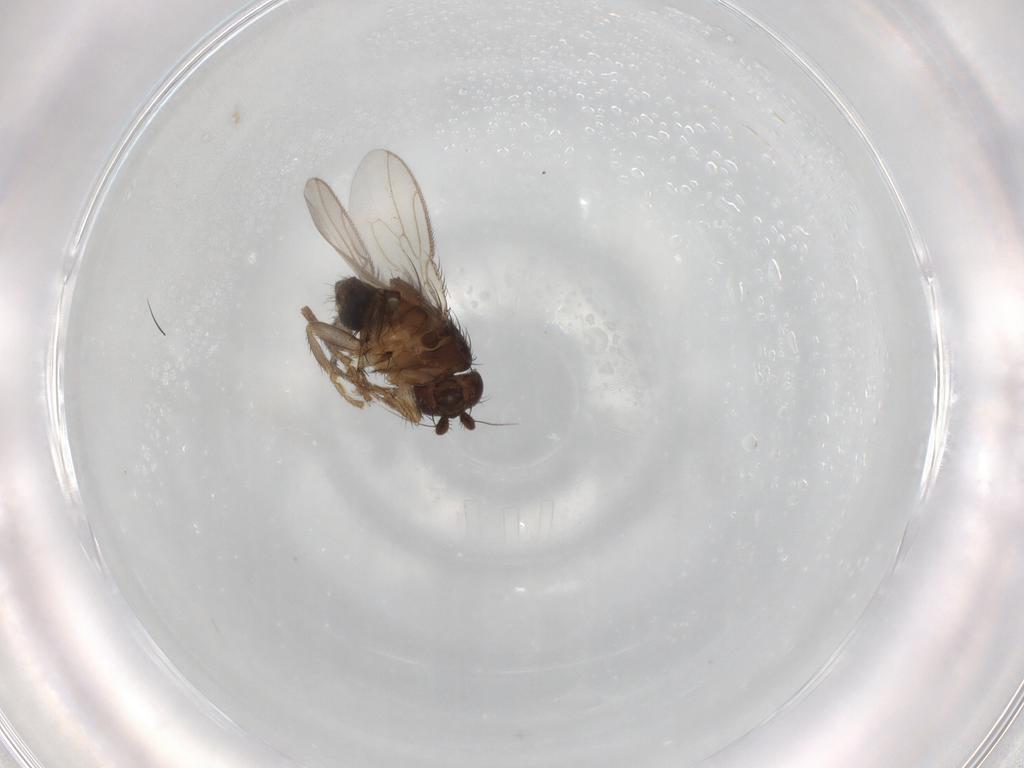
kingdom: Animalia
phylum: Arthropoda
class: Insecta
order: Diptera
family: Sphaeroceridae
